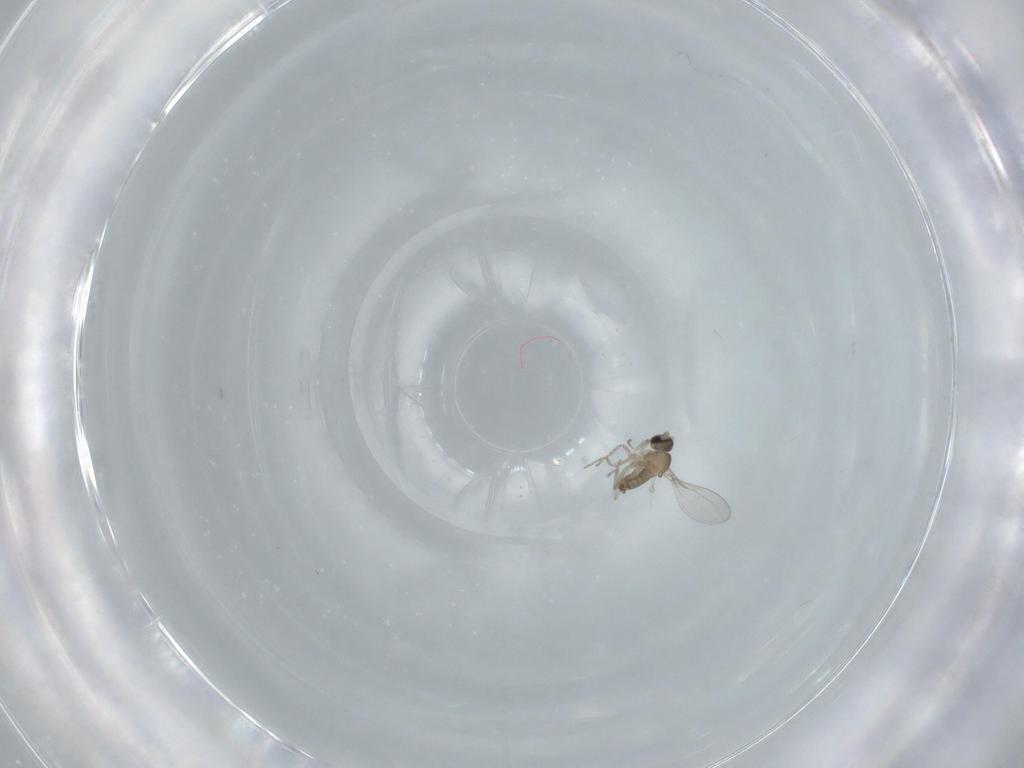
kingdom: Animalia
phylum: Arthropoda
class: Insecta
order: Diptera
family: Cecidomyiidae
